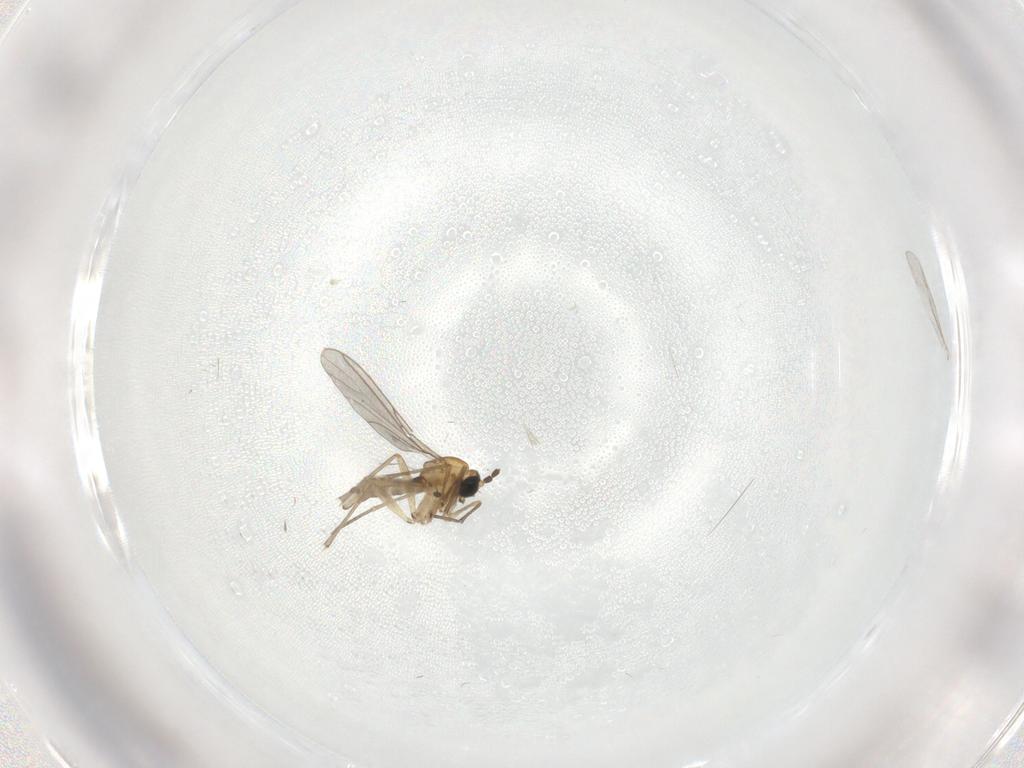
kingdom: Animalia
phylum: Arthropoda
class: Insecta
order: Diptera
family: Sciaridae
